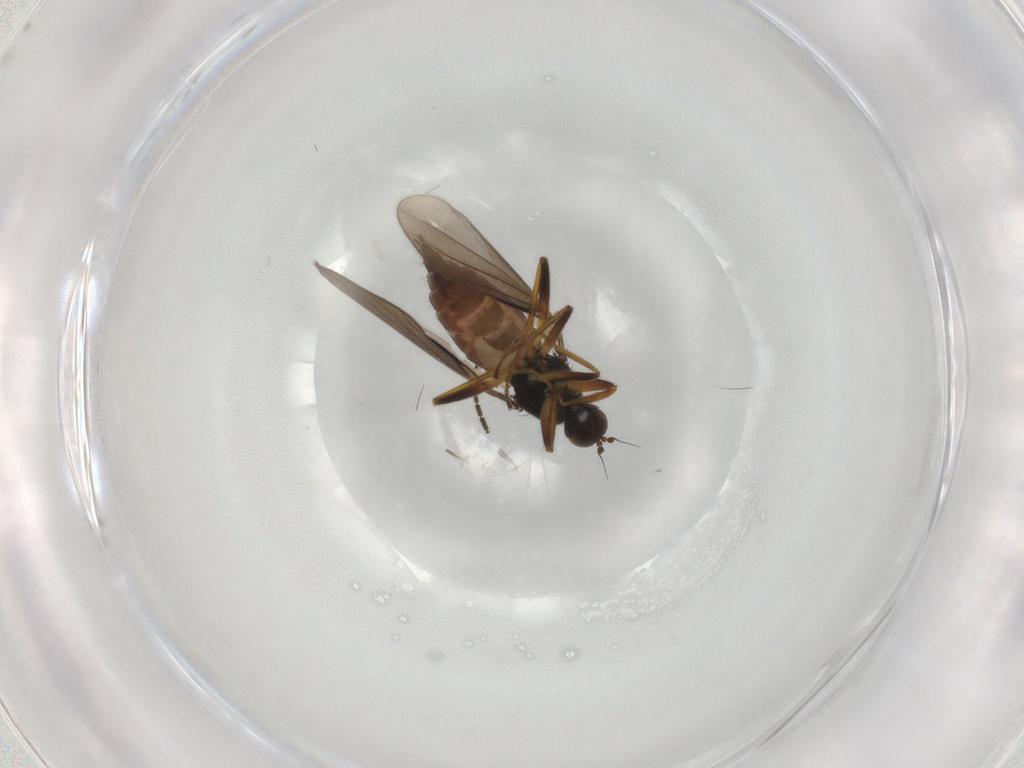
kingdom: Animalia
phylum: Arthropoda
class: Insecta
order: Diptera
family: Hybotidae
